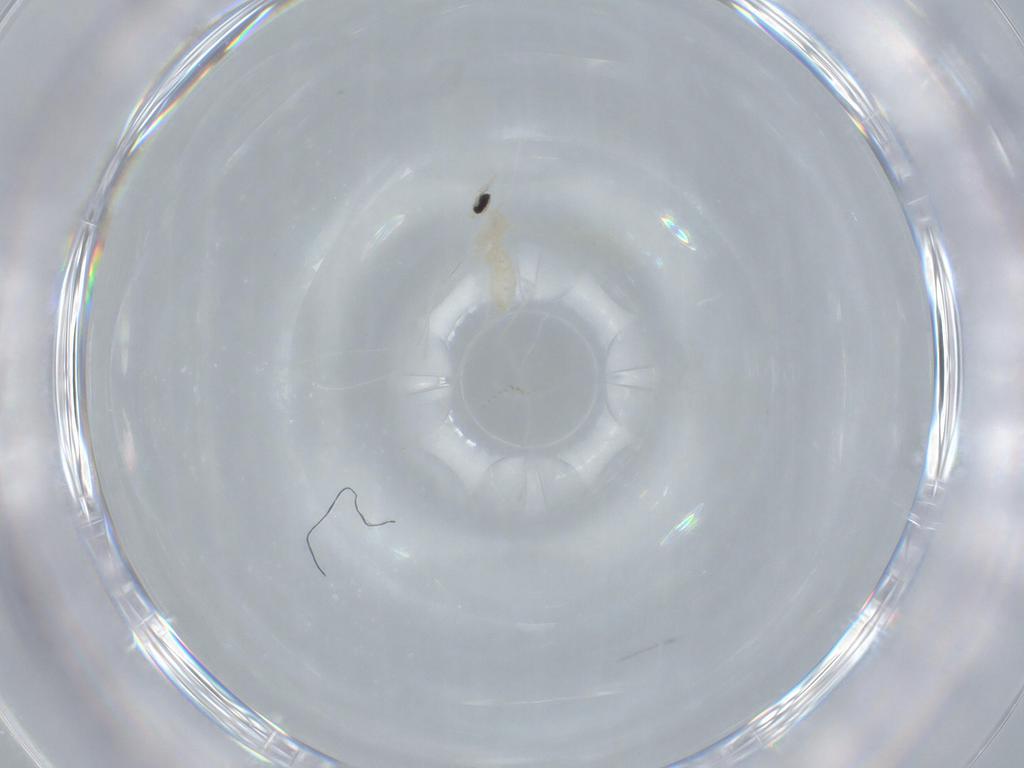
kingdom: Animalia
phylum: Arthropoda
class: Insecta
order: Diptera
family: Cecidomyiidae
